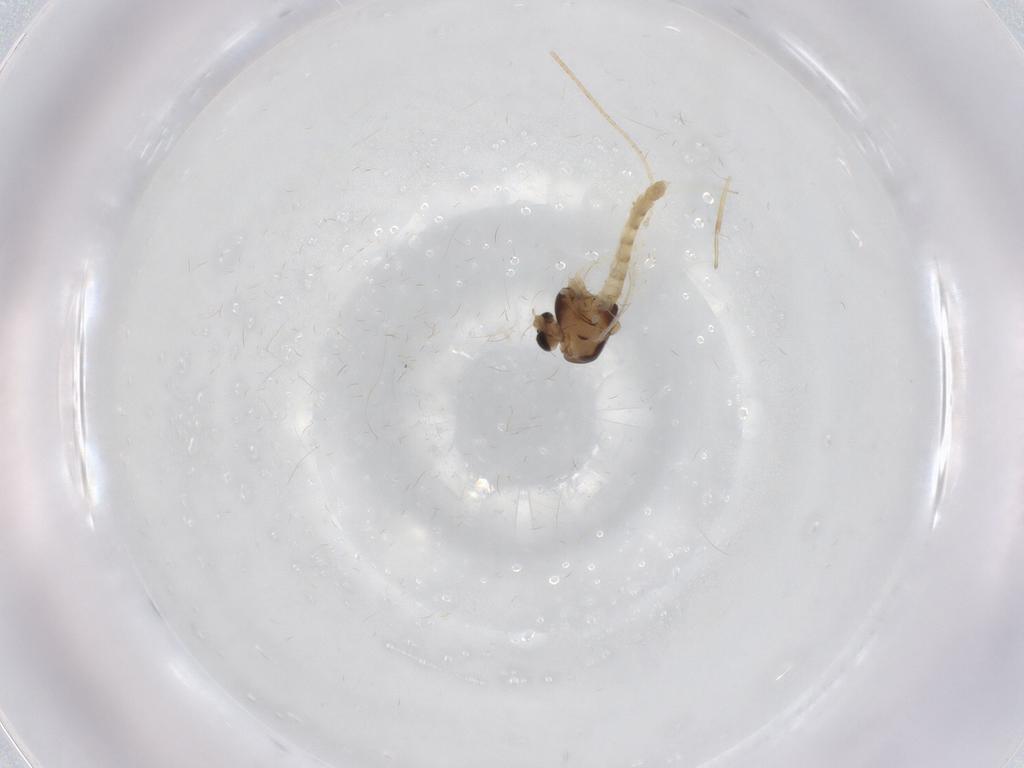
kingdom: Animalia
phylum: Arthropoda
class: Insecta
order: Diptera
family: Chironomidae
